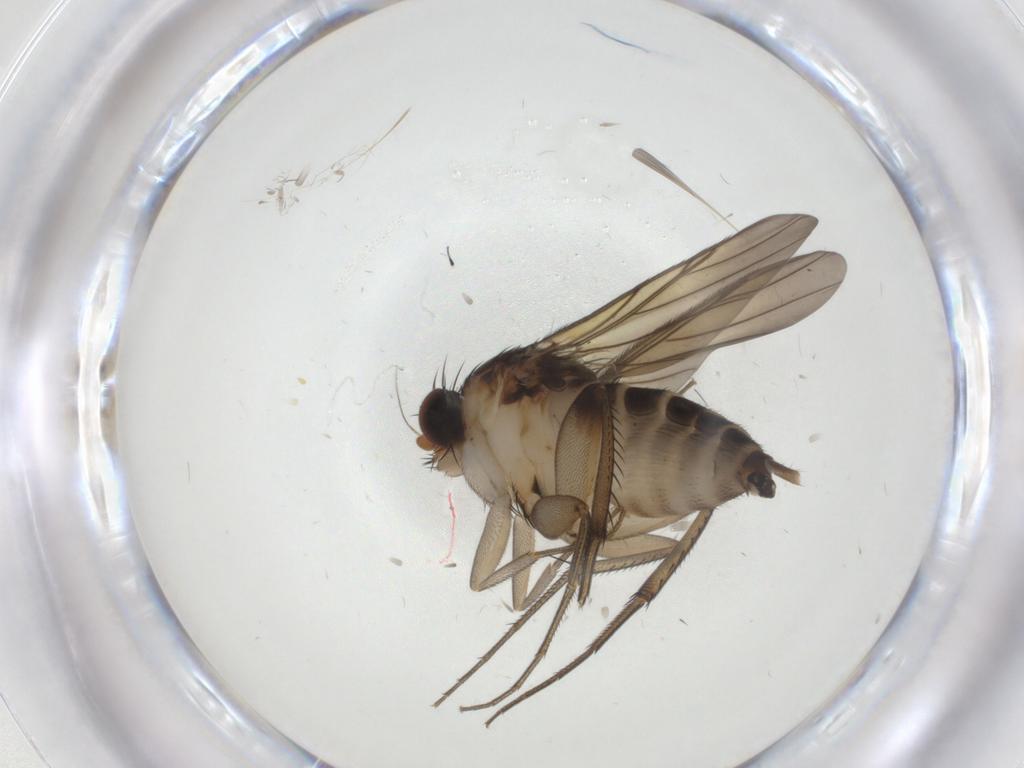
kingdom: Animalia
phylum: Arthropoda
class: Insecta
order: Diptera
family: Phoridae
